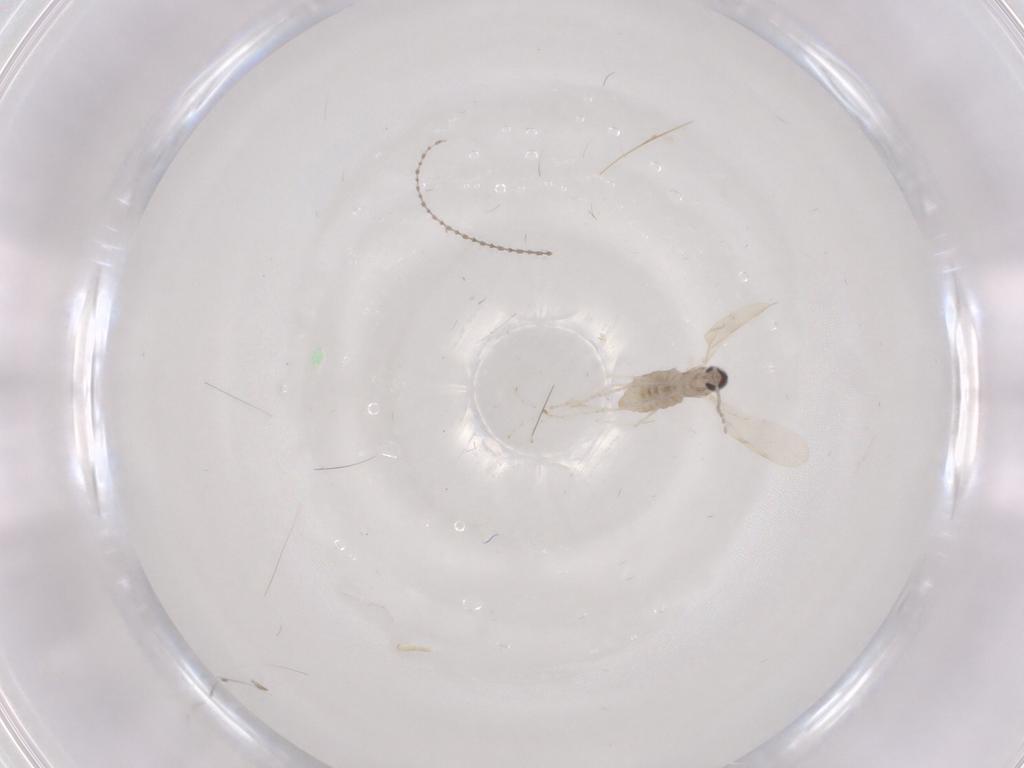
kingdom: Animalia
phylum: Arthropoda
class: Insecta
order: Diptera
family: Cecidomyiidae
